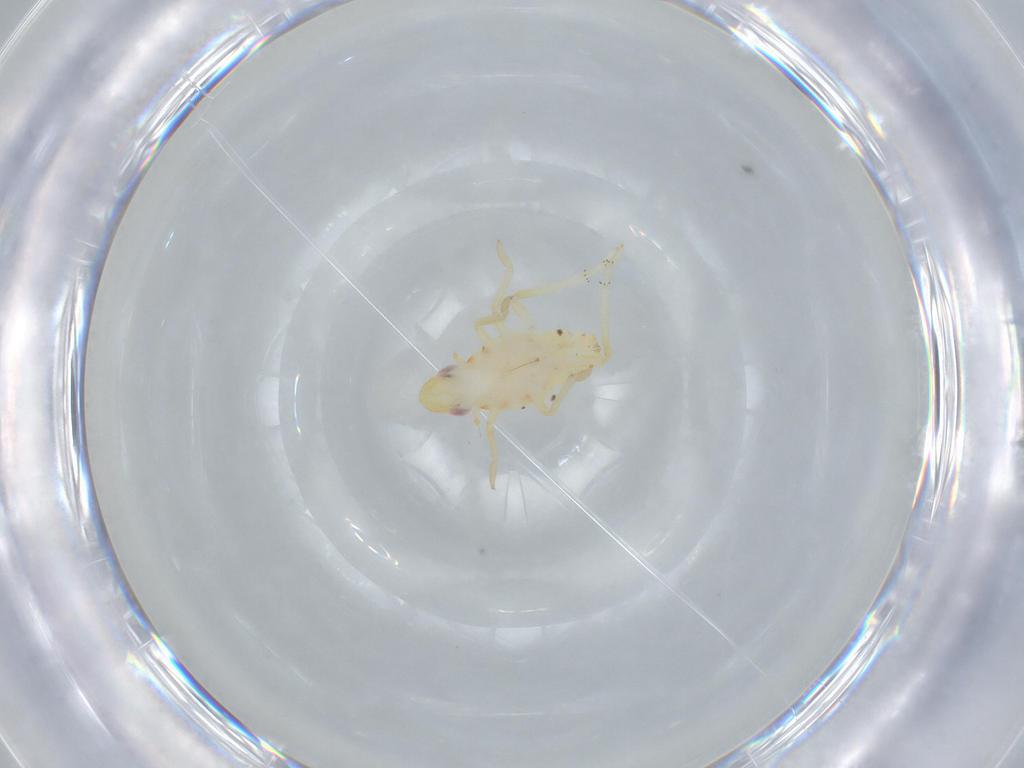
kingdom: Animalia
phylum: Arthropoda
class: Insecta
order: Hemiptera
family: Tropiduchidae
